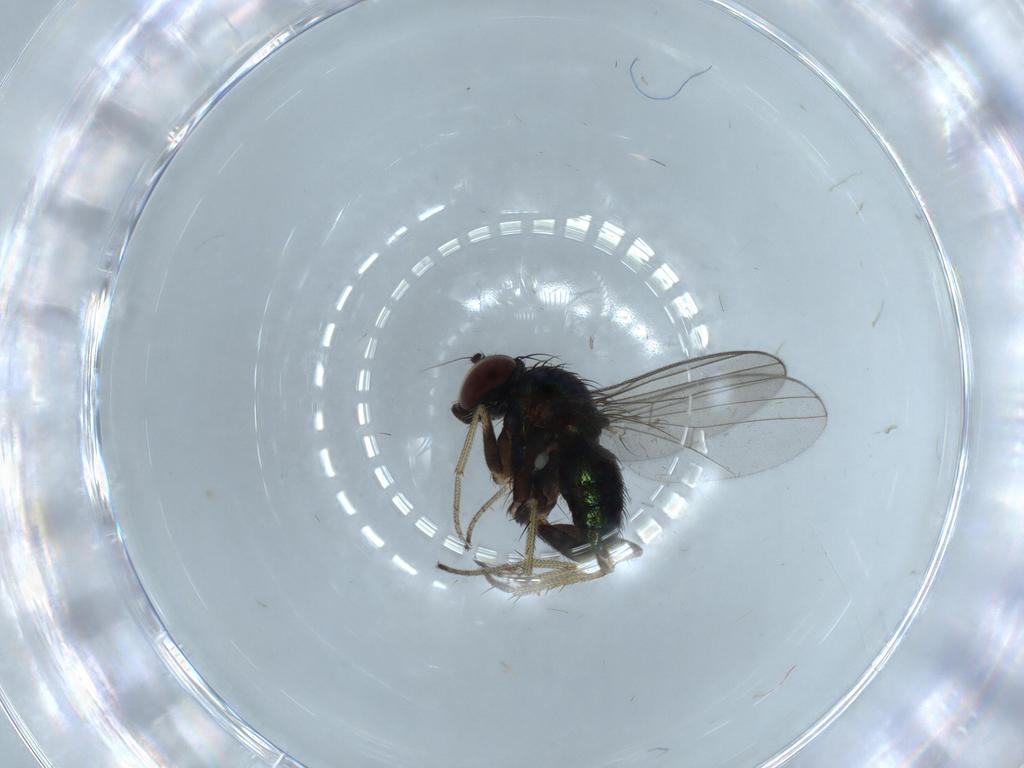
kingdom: Animalia
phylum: Arthropoda
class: Insecta
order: Diptera
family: Dolichopodidae
